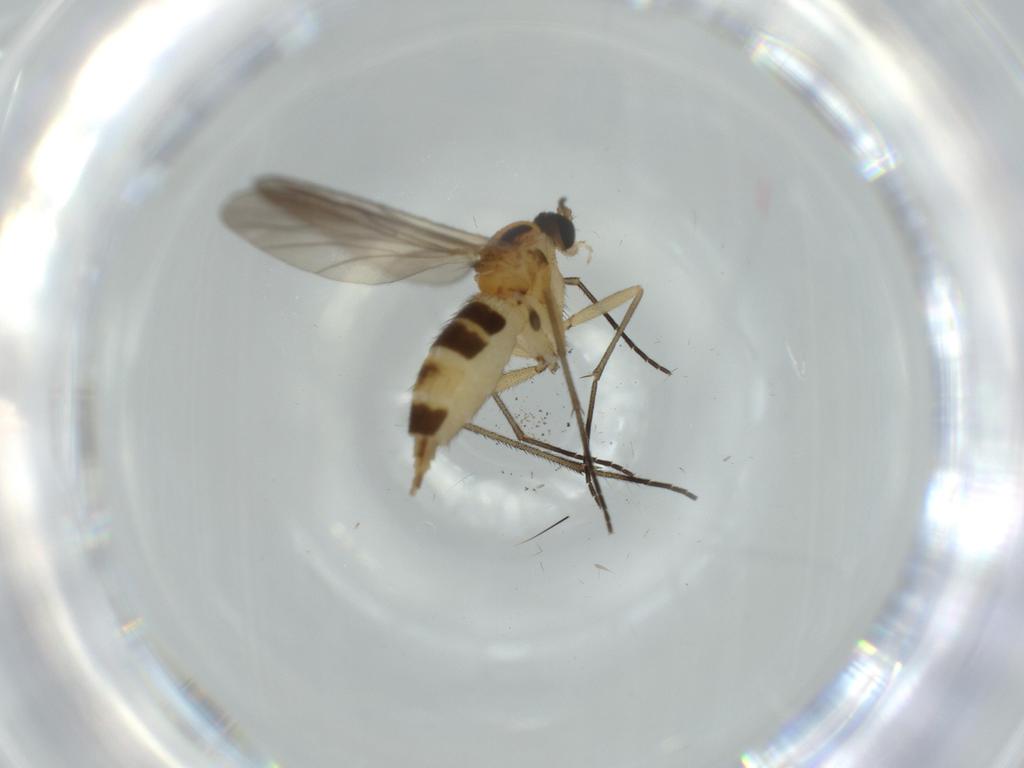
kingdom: Animalia
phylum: Arthropoda
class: Insecta
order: Diptera
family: Sciaridae
